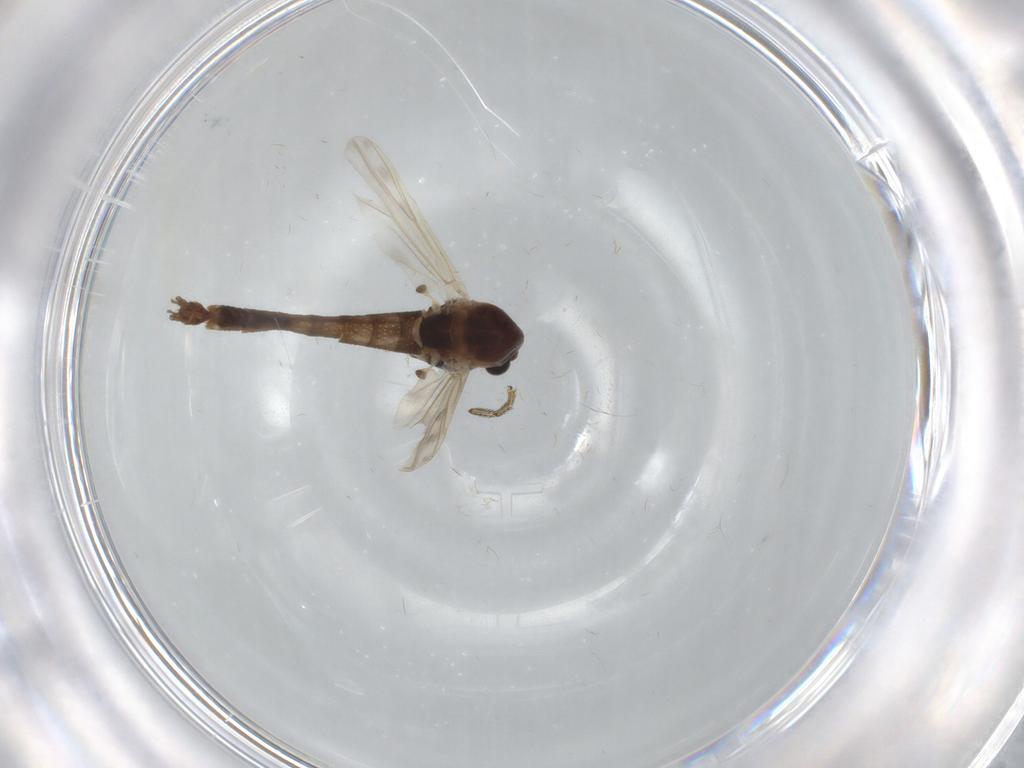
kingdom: Animalia
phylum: Arthropoda
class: Insecta
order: Diptera
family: Chironomidae
